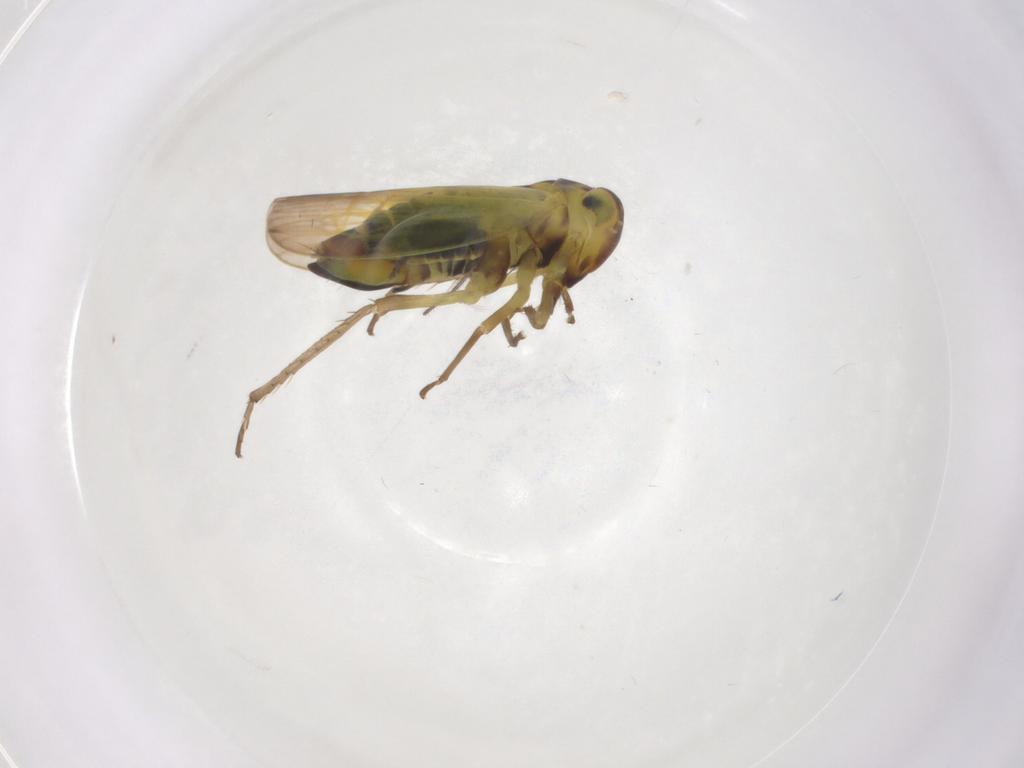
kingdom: Animalia
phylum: Arthropoda
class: Insecta
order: Hemiptera
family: Cicadellidae
